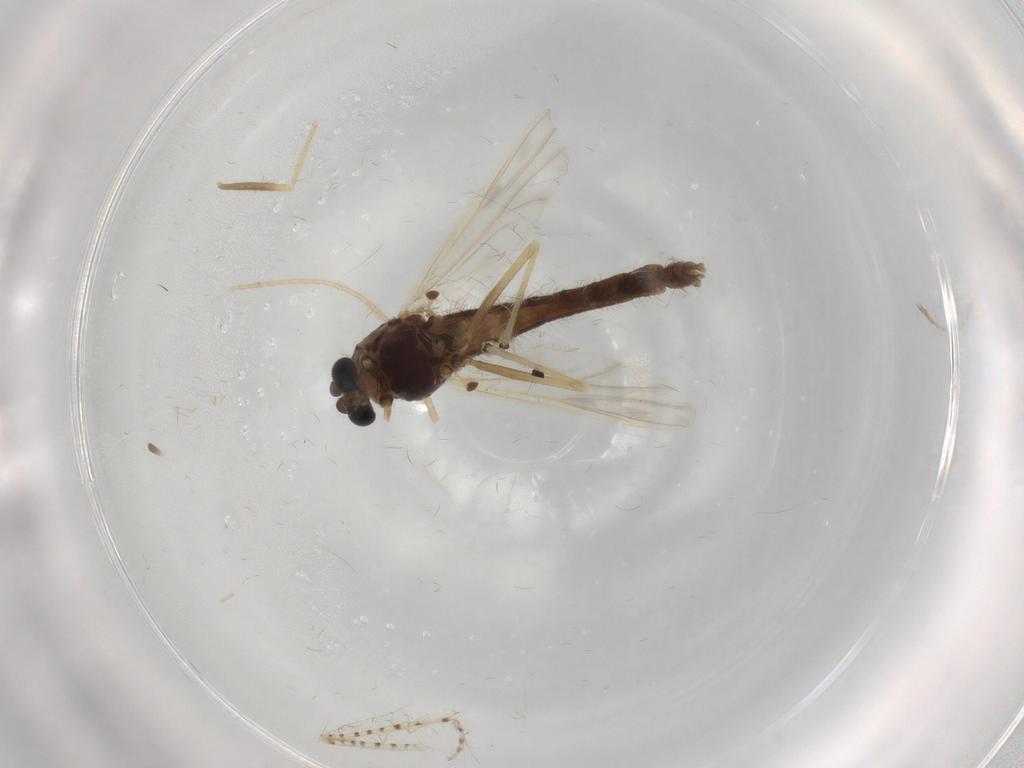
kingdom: Animalia
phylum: Arthropoda
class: Insecta
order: Diptera
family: Chironomidae
